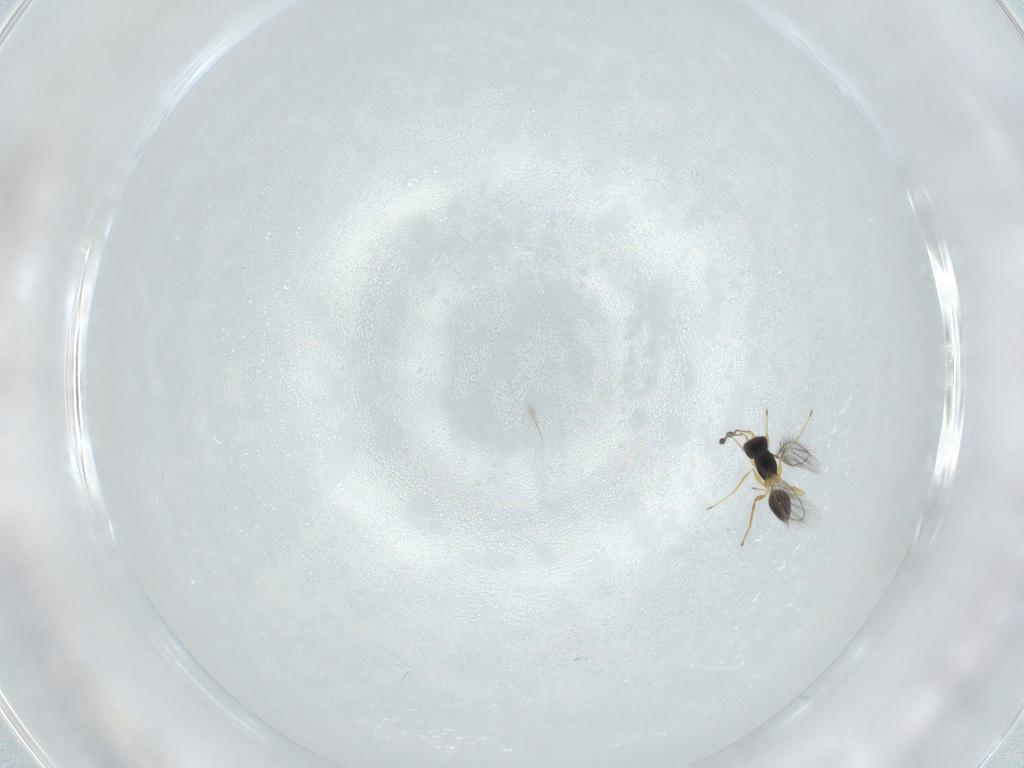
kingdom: Animalia
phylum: Arthropoda
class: Insecta
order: Hymenoptera
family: Mymaridae
